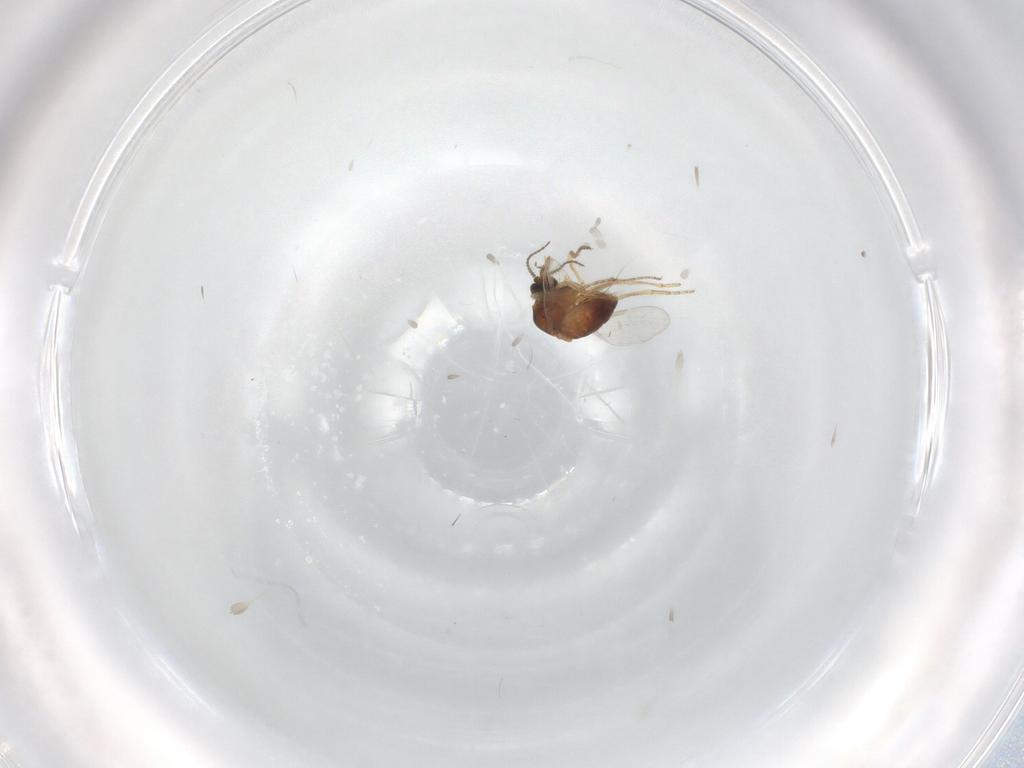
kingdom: Animalia
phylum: Arthropoda
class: Insecta
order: Diptera
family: Ceratopogonidae
